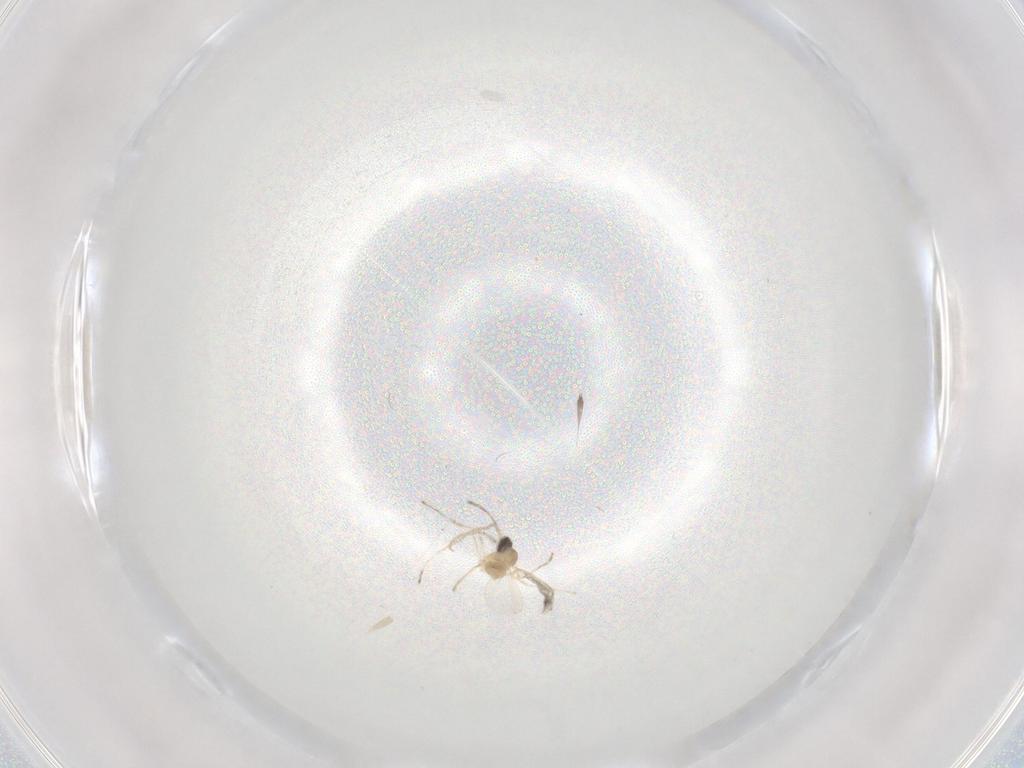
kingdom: Animalia
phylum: Arthropoda
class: Insecta
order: Diptera
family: Cecidomyiidae
